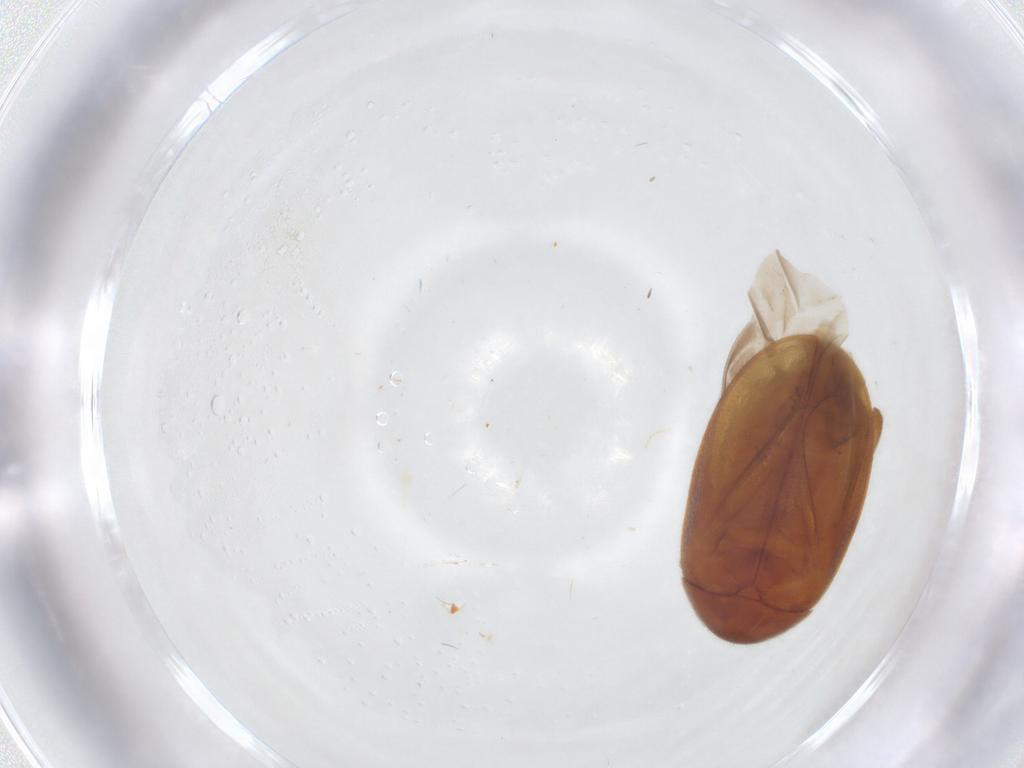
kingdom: Animalia
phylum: Arthropoda
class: Insecta
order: Coleoptera
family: Scirtidae
